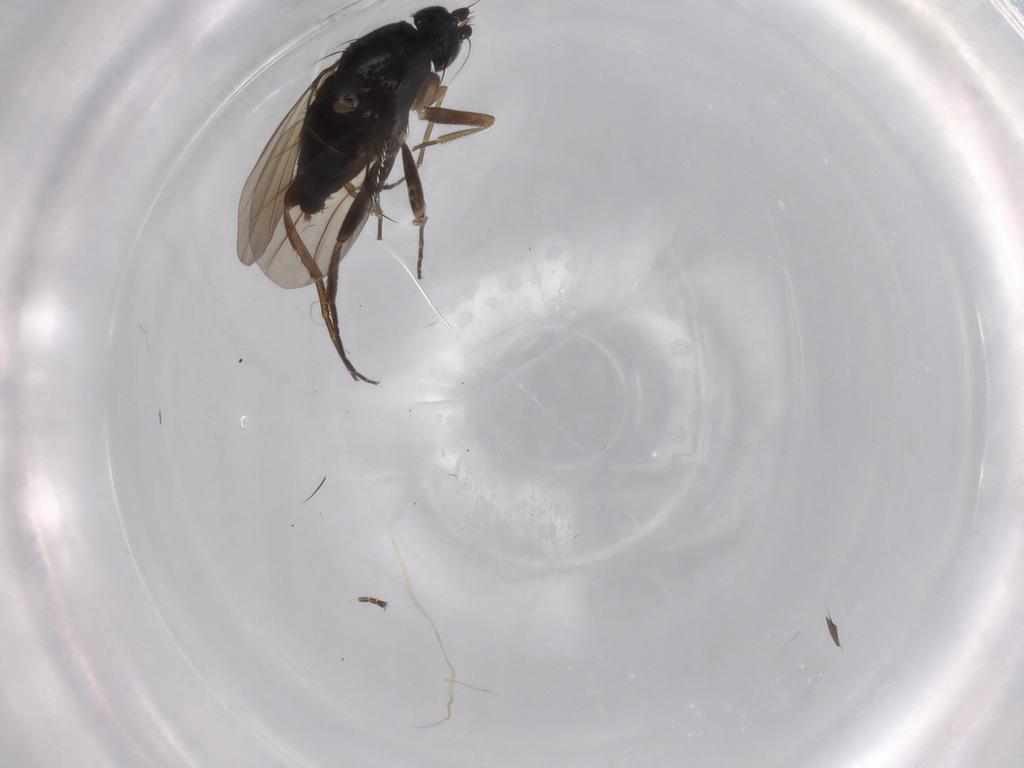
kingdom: Animalia
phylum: Arthropoda
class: Insecta
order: Diptera
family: Phoridae
